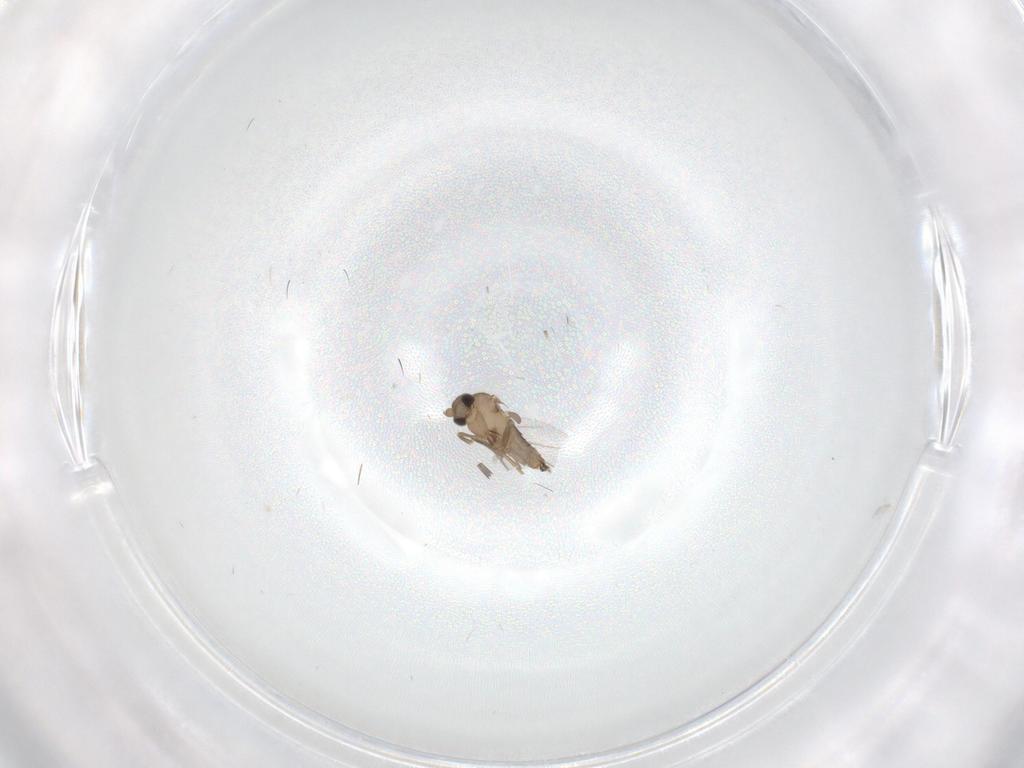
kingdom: Animalia
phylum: Arthropoda
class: Insecta
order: Diptera
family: Cecidomyiidae
